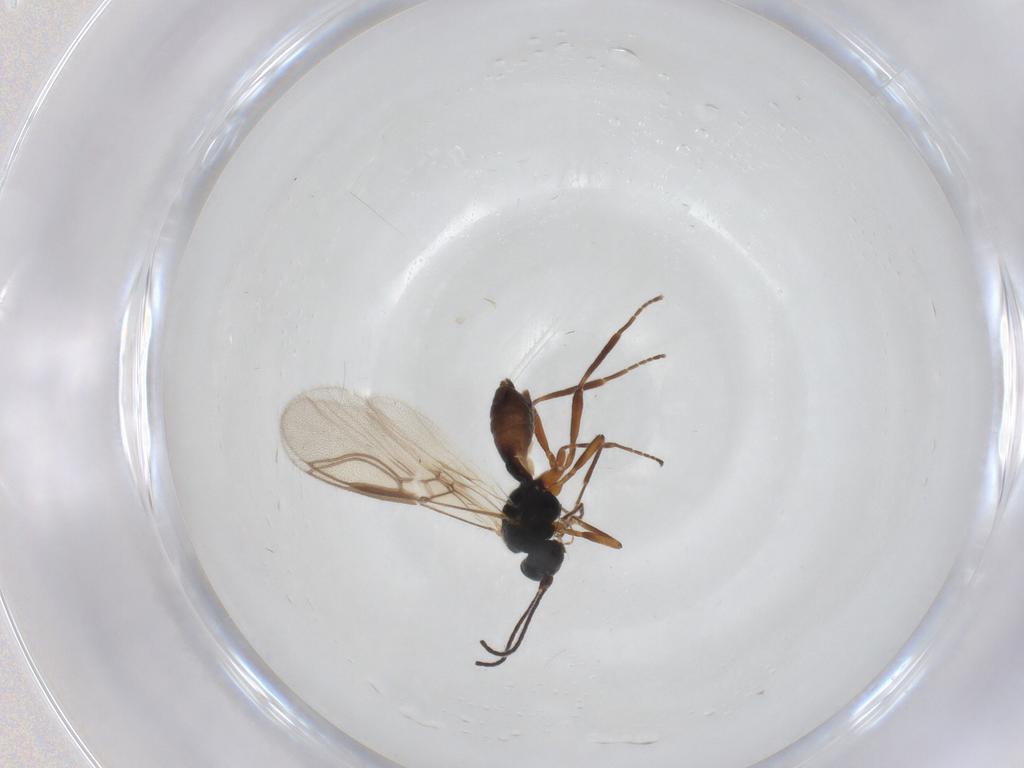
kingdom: Animalia
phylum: Arthropoda
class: Insecta
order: Hymenoptera
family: Braconidae
